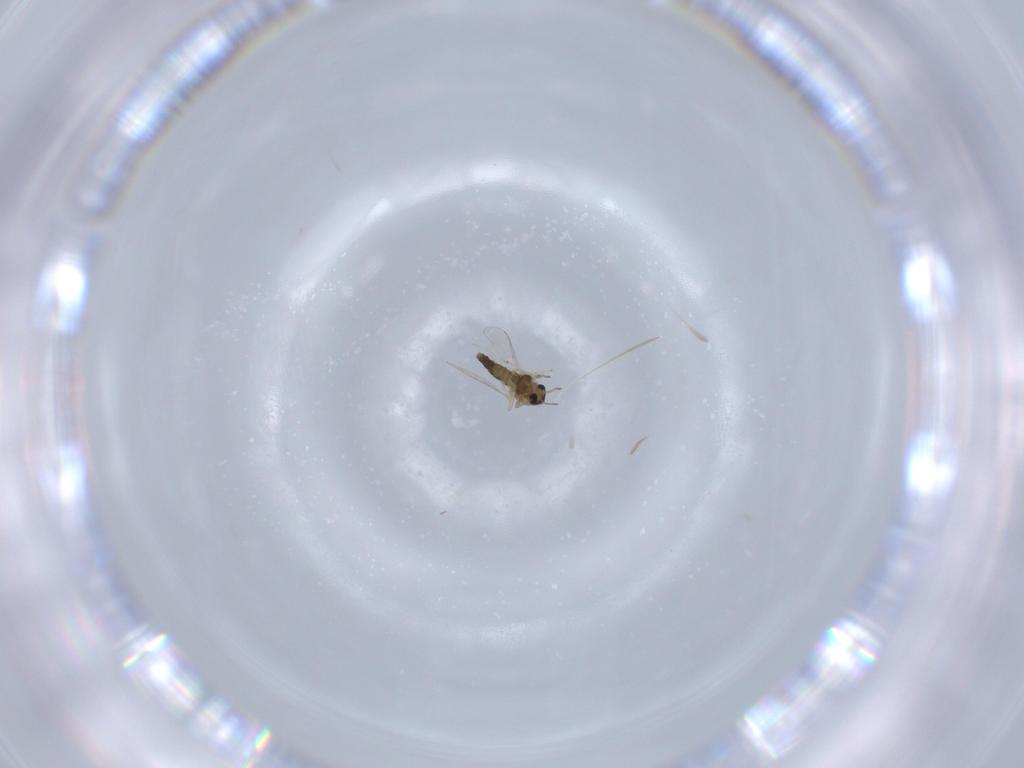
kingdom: Animalia
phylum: Arthropoda
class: Insecta
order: Diptera
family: Chironomidae
